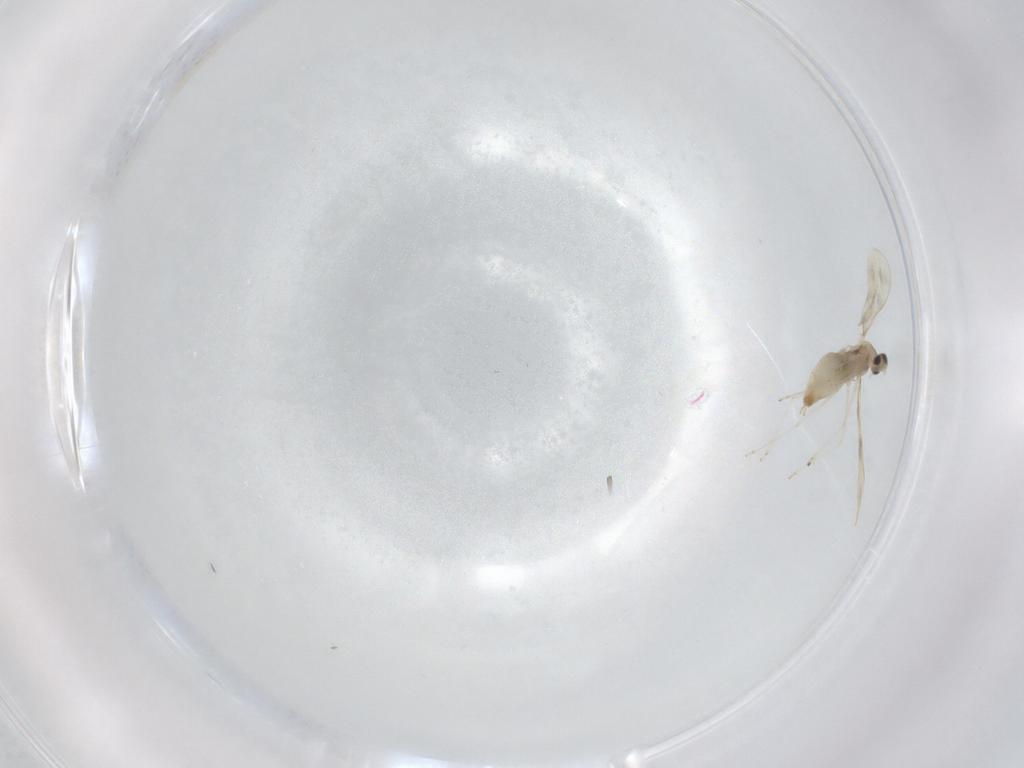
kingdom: Animalia
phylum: Arthropoda
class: Insecta
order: Diptera
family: Cecidomyiidae
